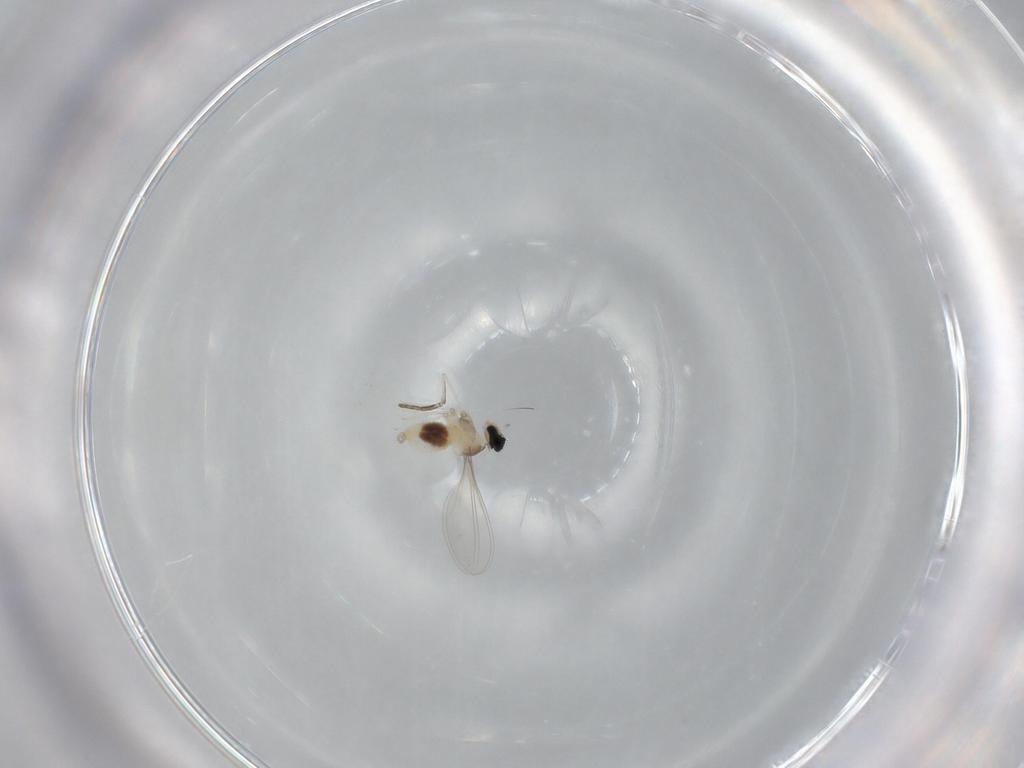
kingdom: Animalia
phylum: Arthropoda
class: Insecta
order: Diptera
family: Cecidomyiidae
